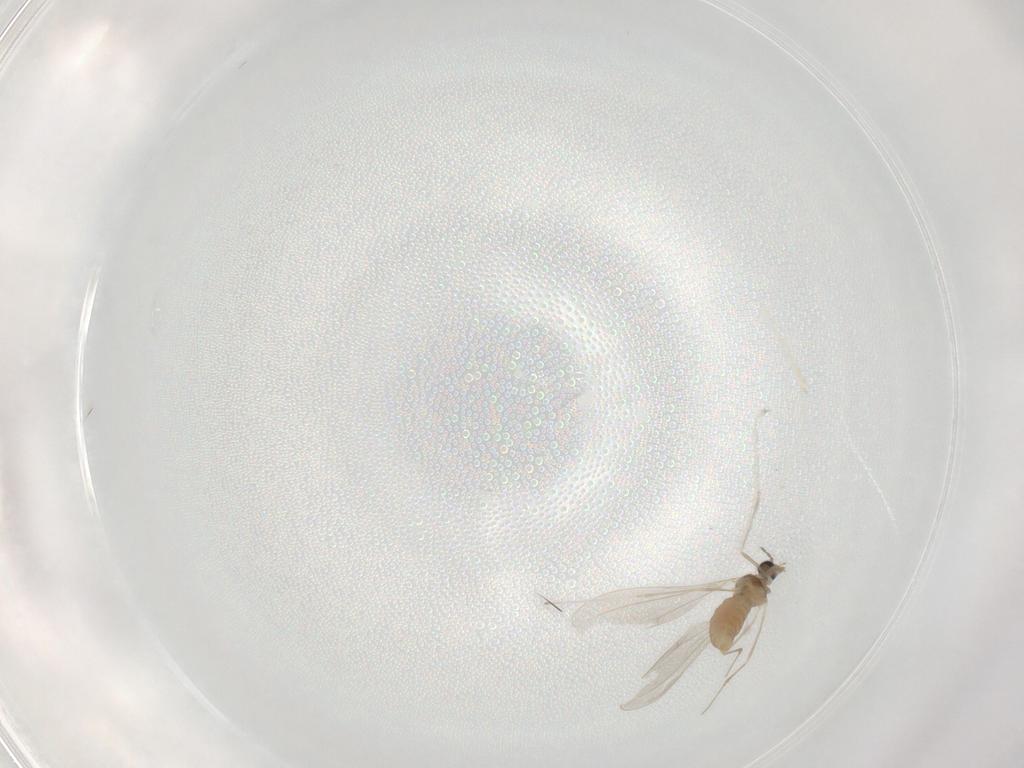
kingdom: Animalia
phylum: Arthropoda
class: Insecta
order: Diptera
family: Cecidomyiidae
